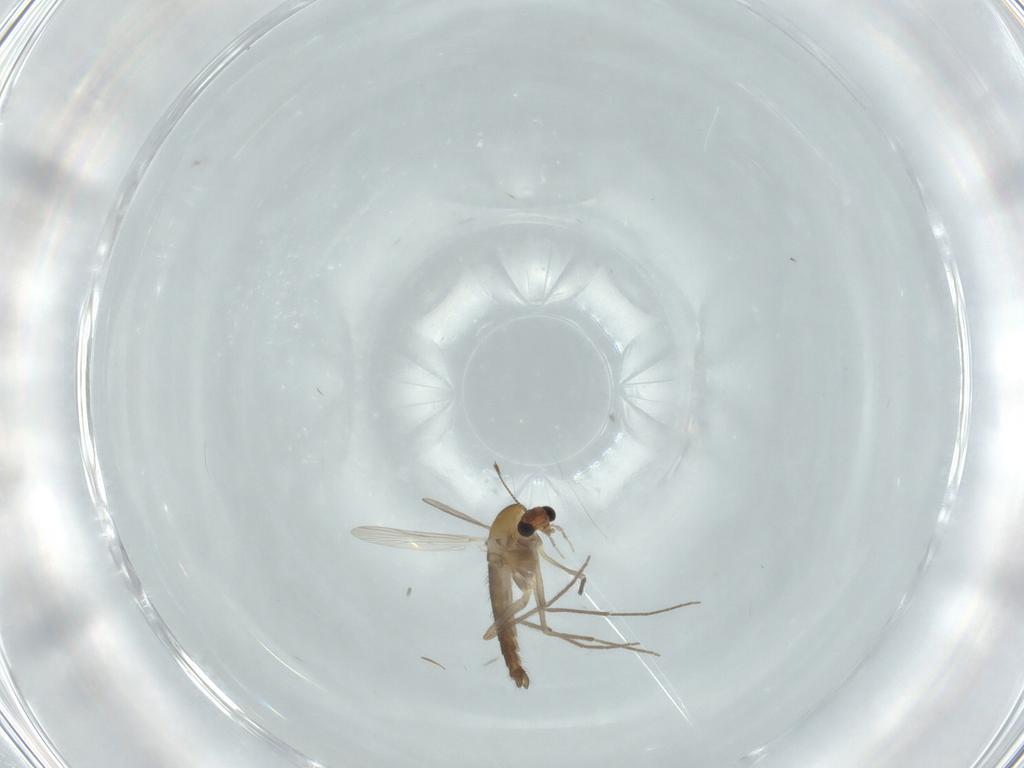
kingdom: Animalia
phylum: Arthropoda
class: Insecta
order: Diptera
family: Chironomidae
